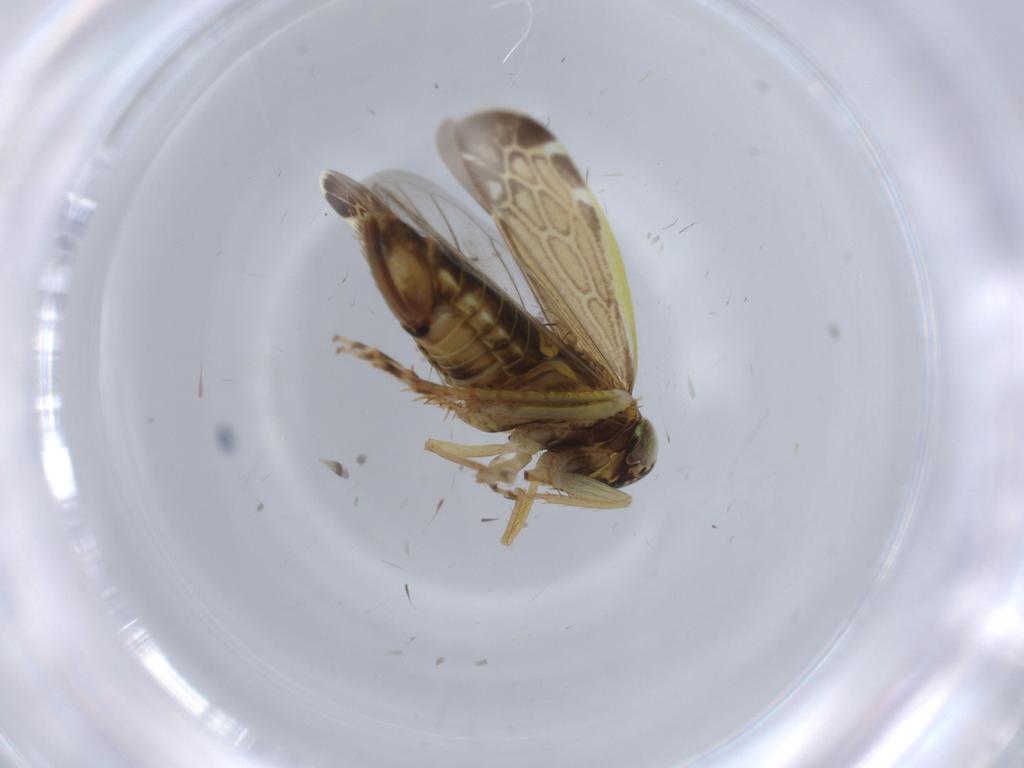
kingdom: Animalia
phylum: Arthropoda
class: Insecta
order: Hemiptera
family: Cicadellidae
